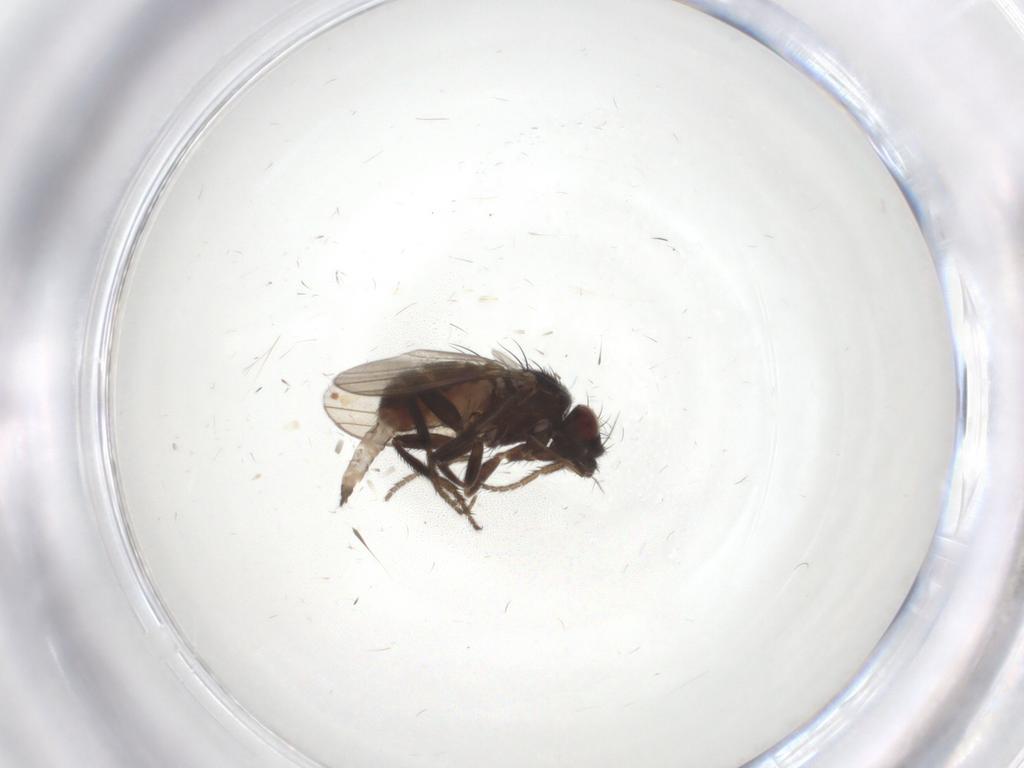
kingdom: Animalia
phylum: Arthropoda
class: Insecta
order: Diptera
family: Milichiidae
